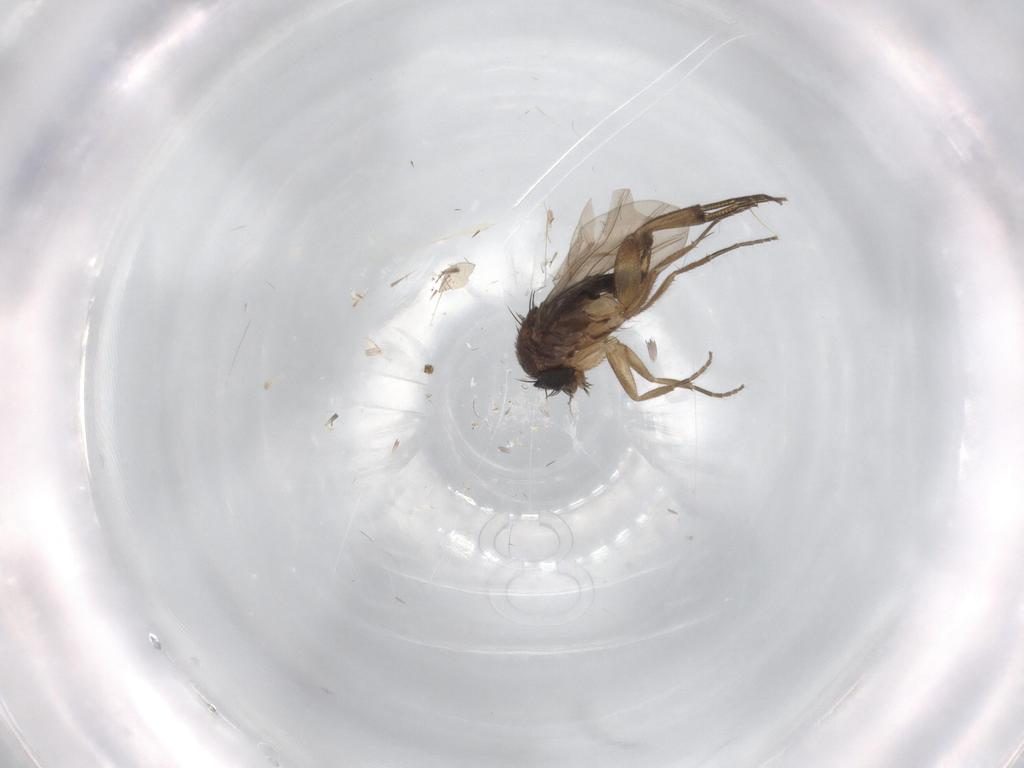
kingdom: Animalia
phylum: Arthropoda
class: Insecta
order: Diptera
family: Sciaridae
